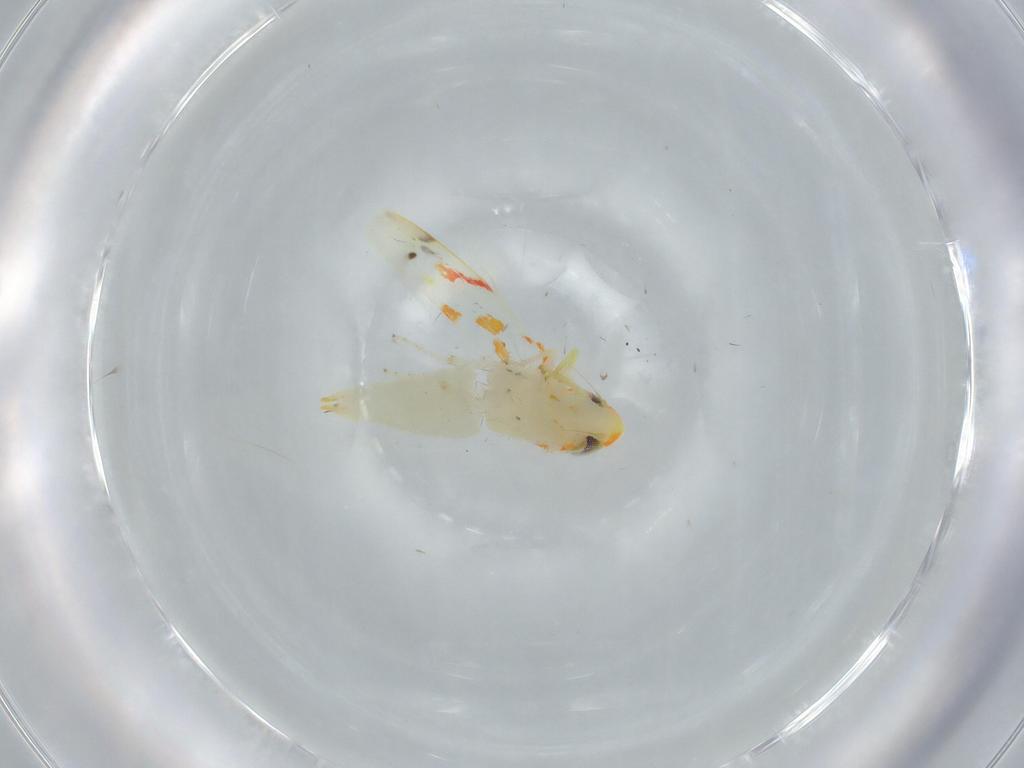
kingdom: Animalia
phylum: Arthropoda
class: Insecta
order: Hemiptera
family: Cicadellidae
